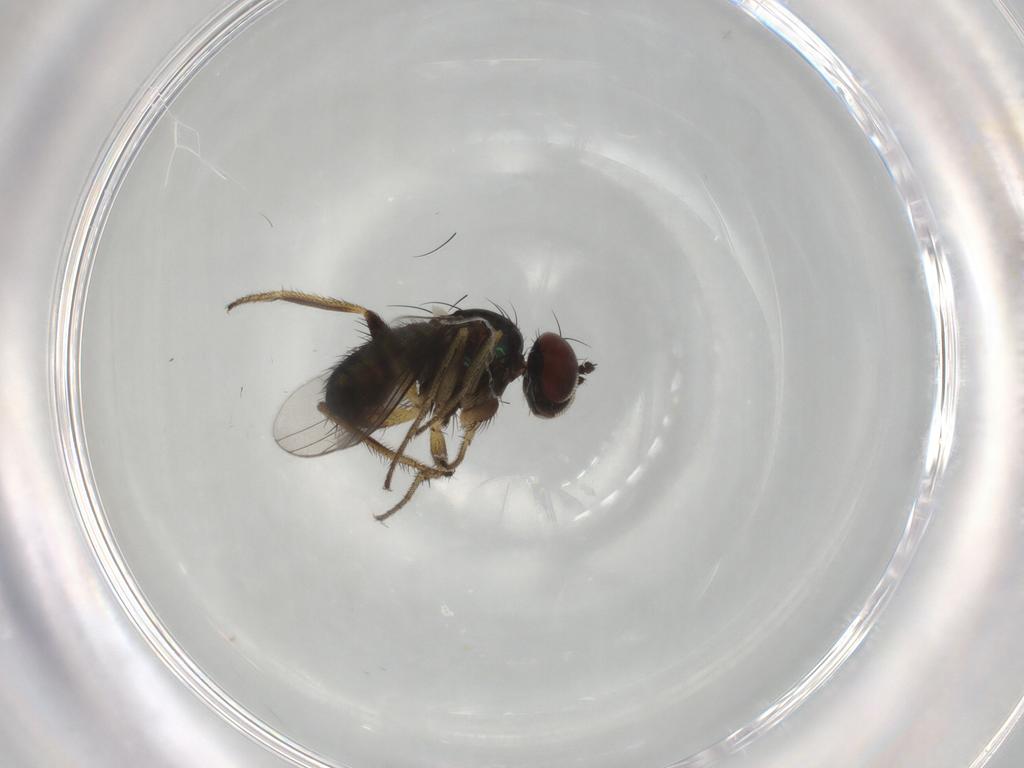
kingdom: Animalia
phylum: Arthropoda
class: Insecta
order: Diptera
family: Dolichopodidae
